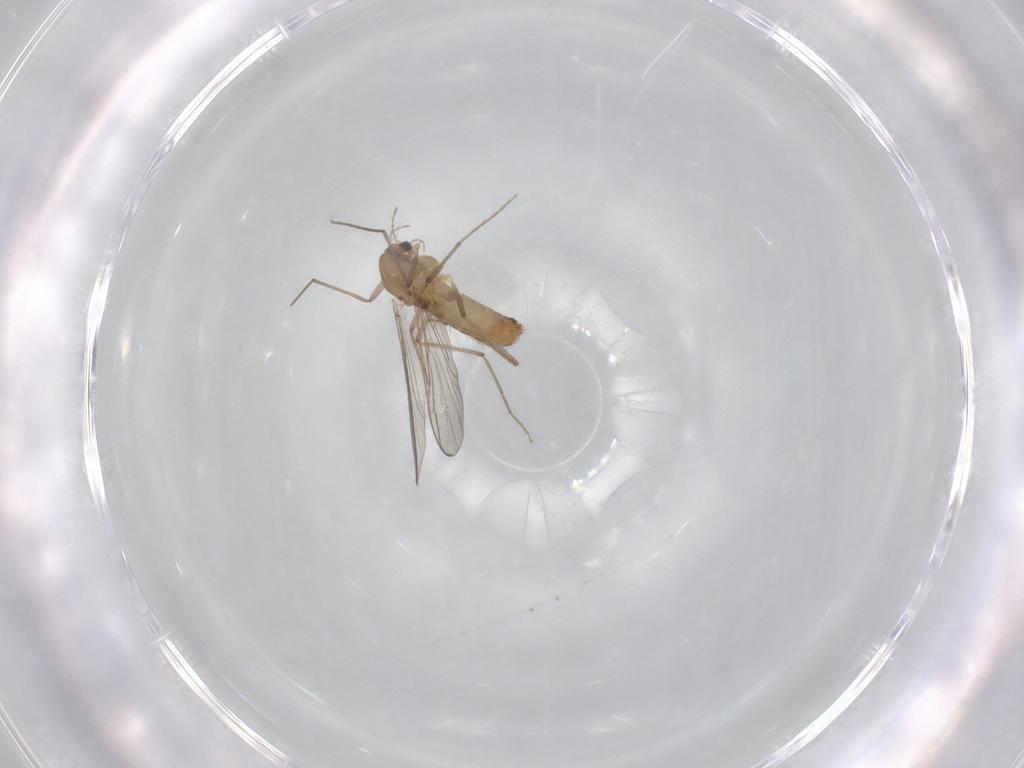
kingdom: Animalia
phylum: Arthropoda
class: Insecta
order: Diptera
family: Chironomidae
